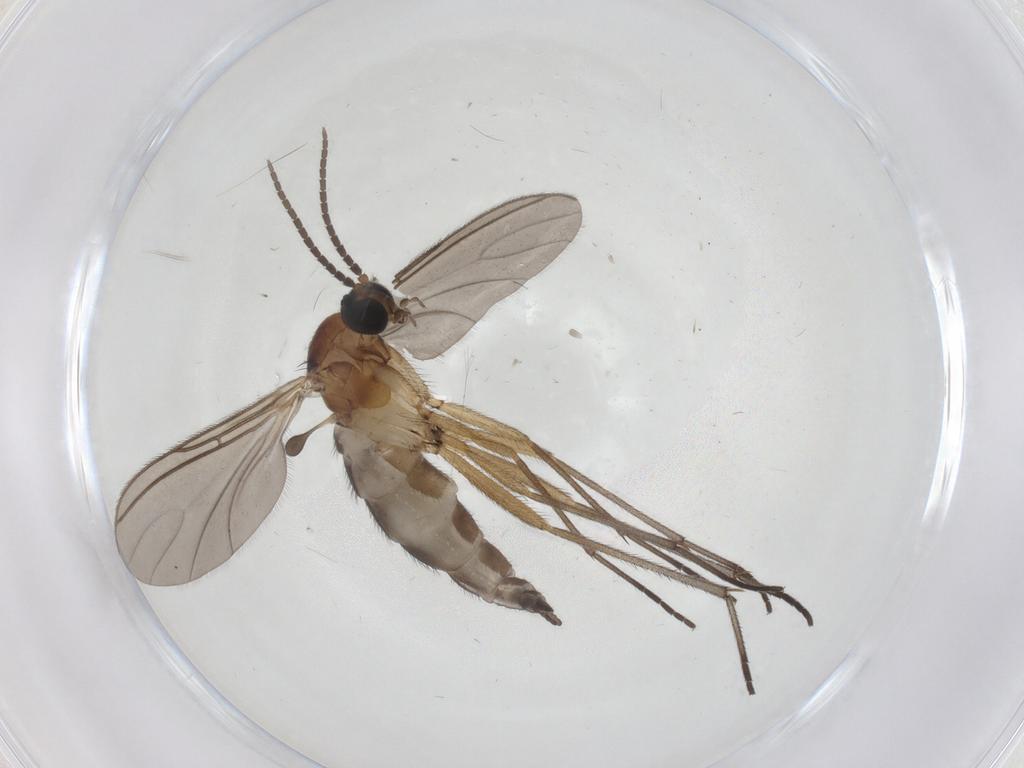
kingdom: Animalia
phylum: Arthropoda
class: Insecta
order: Diptera
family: Sciaridae
